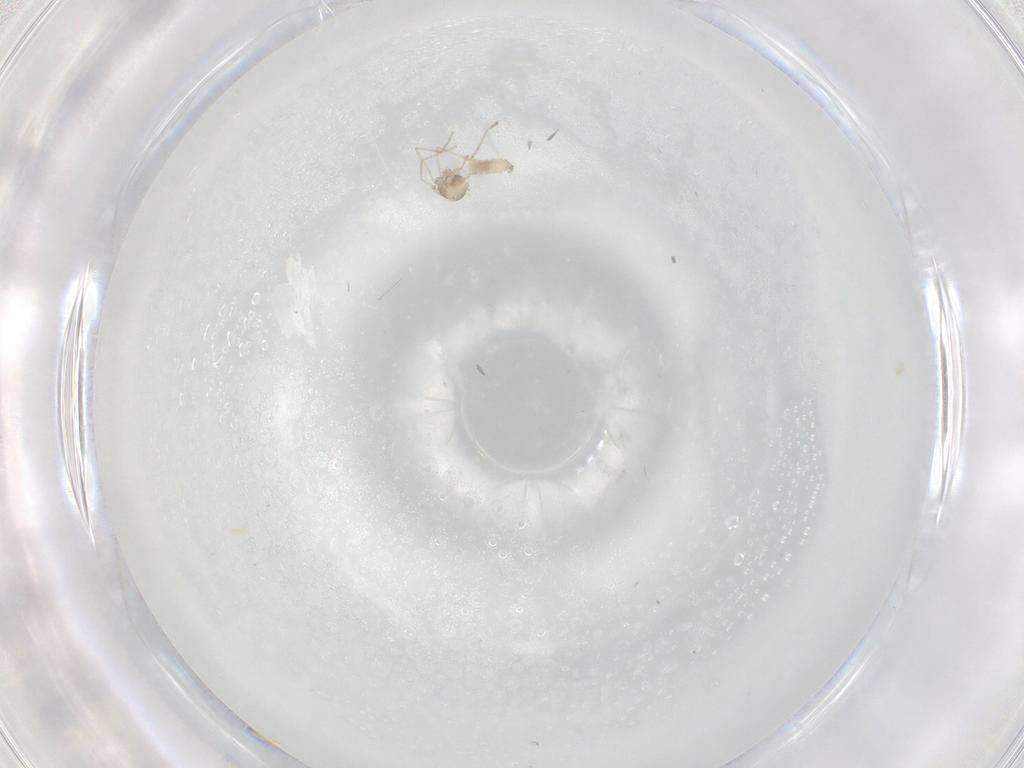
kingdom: Animalia
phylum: Arthropoda
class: Insecta
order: Diptera
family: Cecidomyiidae
